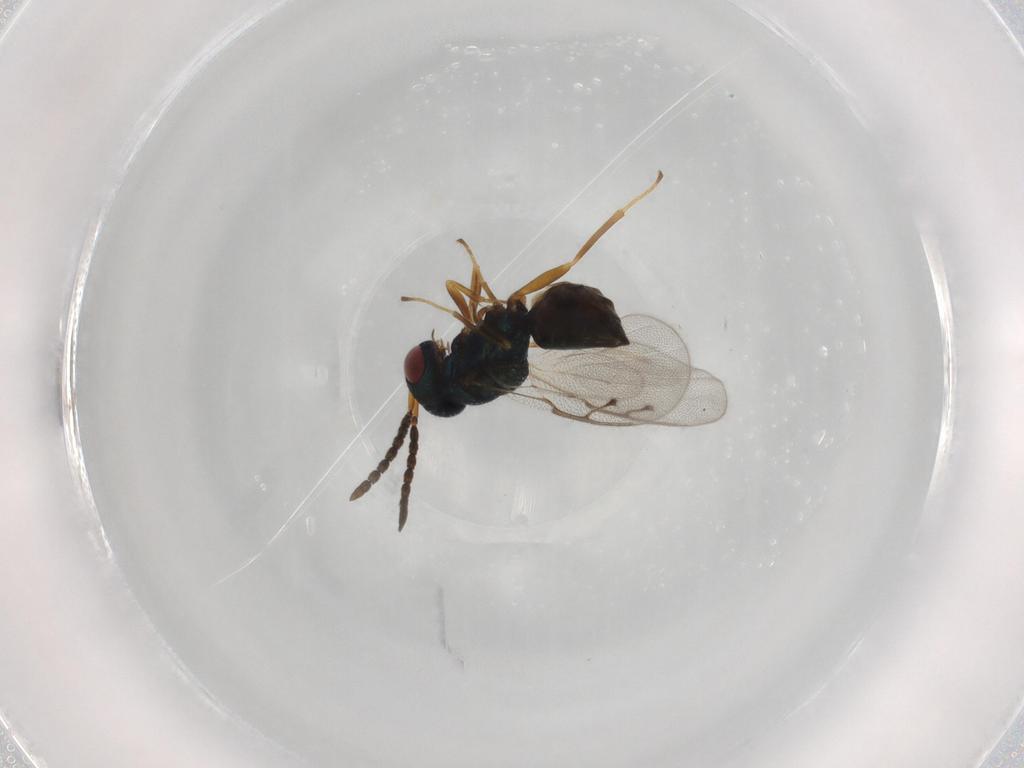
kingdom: Animalia
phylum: Arthropoda
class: Insecta
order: Hymenoptera
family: Pteromalidae
